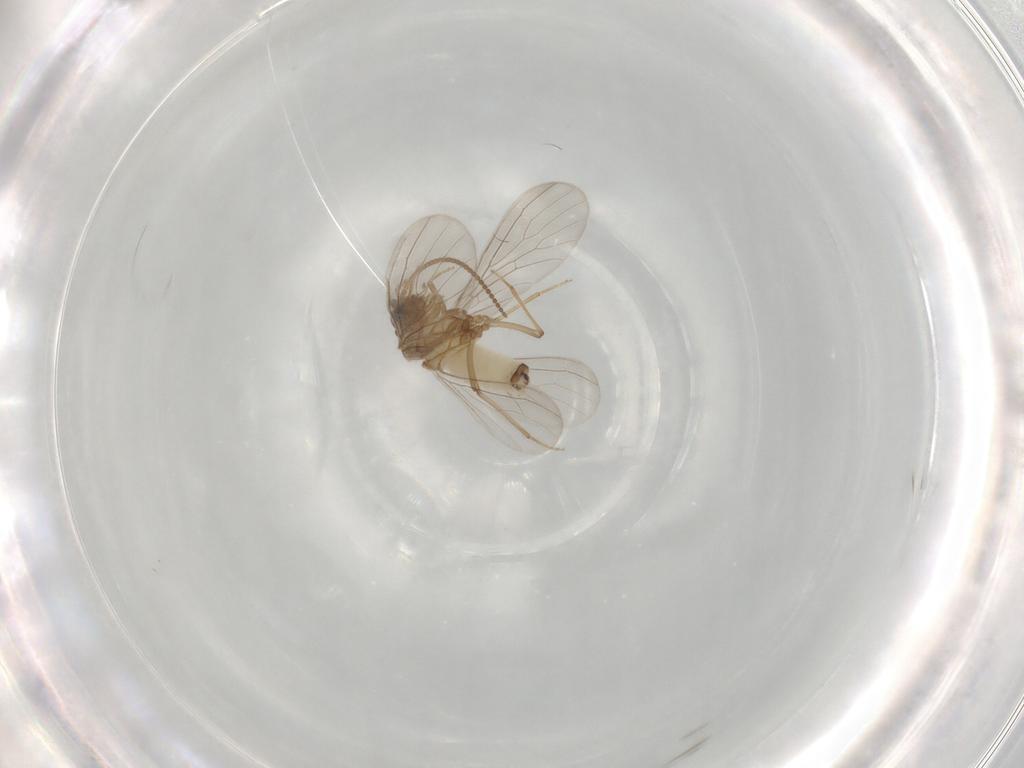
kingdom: Animalia
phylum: Arthropoda
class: Insecta
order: Neuroptera
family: Coniopterygidae
